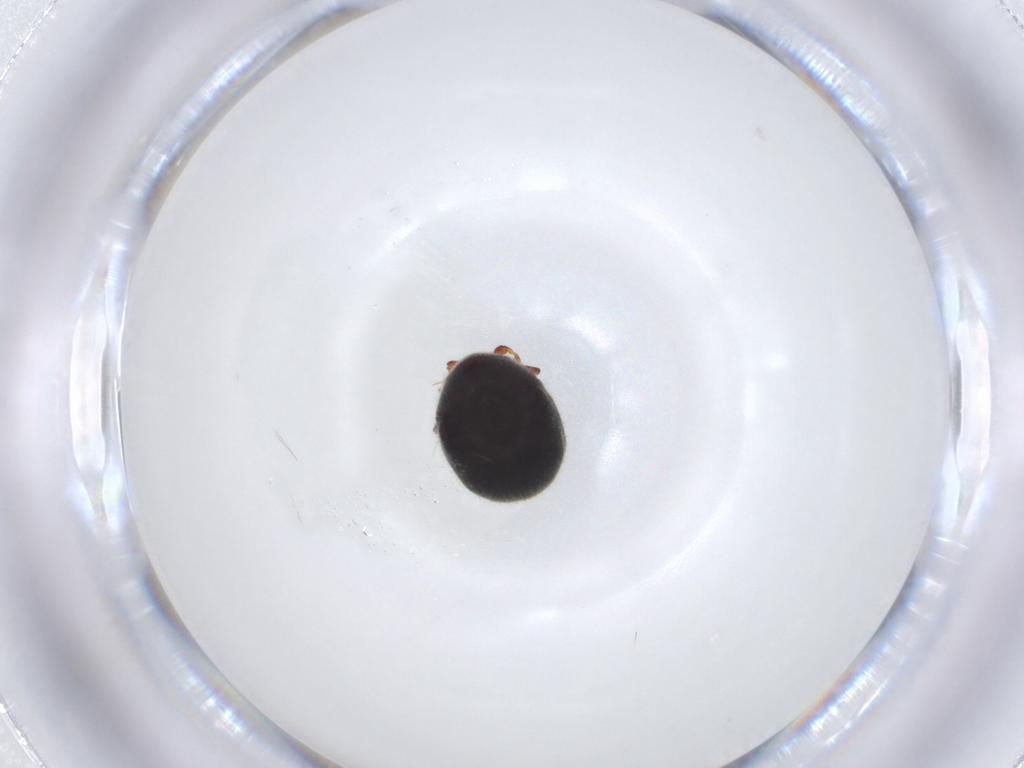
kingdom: Animalia
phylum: Arthropoda
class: Insecta
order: Coleoptera
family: Ptinidae
